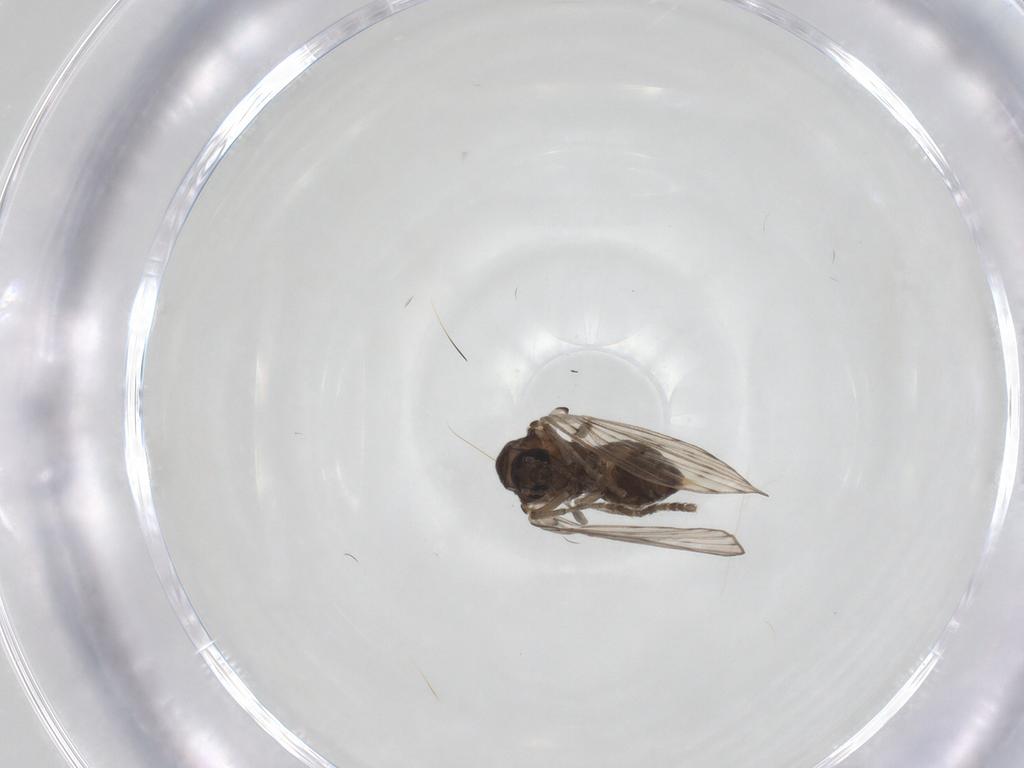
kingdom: Animalia
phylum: Arthropoda
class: Insecta
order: Diptera
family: Psychodidae
